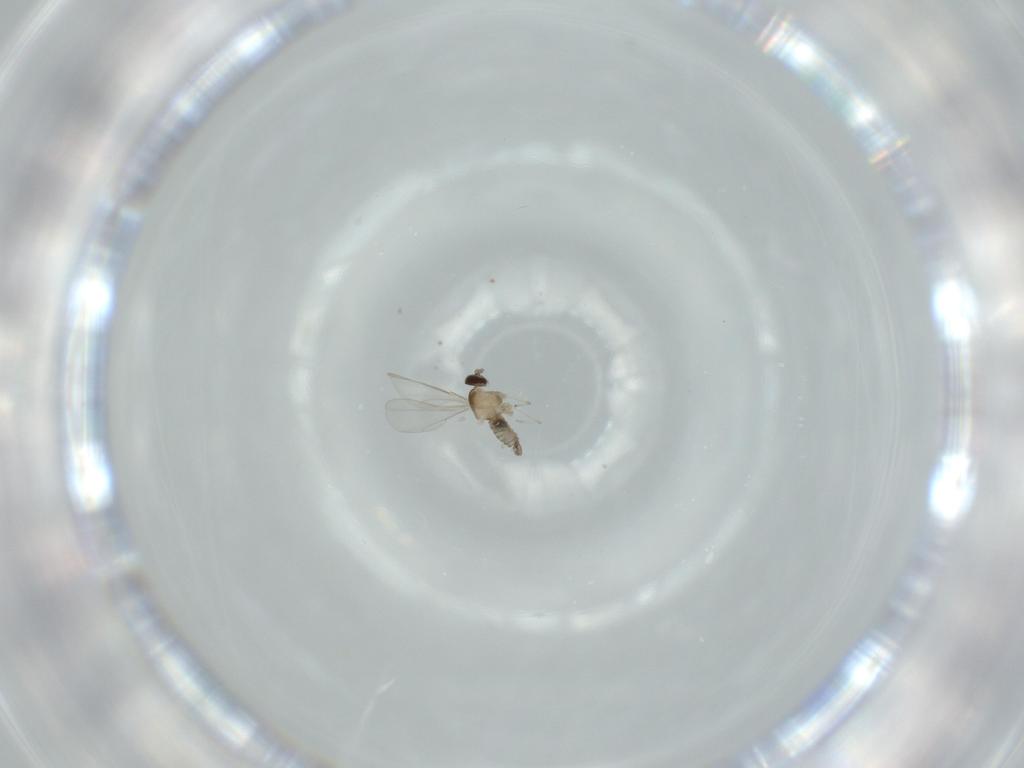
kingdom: Animalia
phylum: Arthropoda
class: Insecta
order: Diptera
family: Cecidomyiidae
